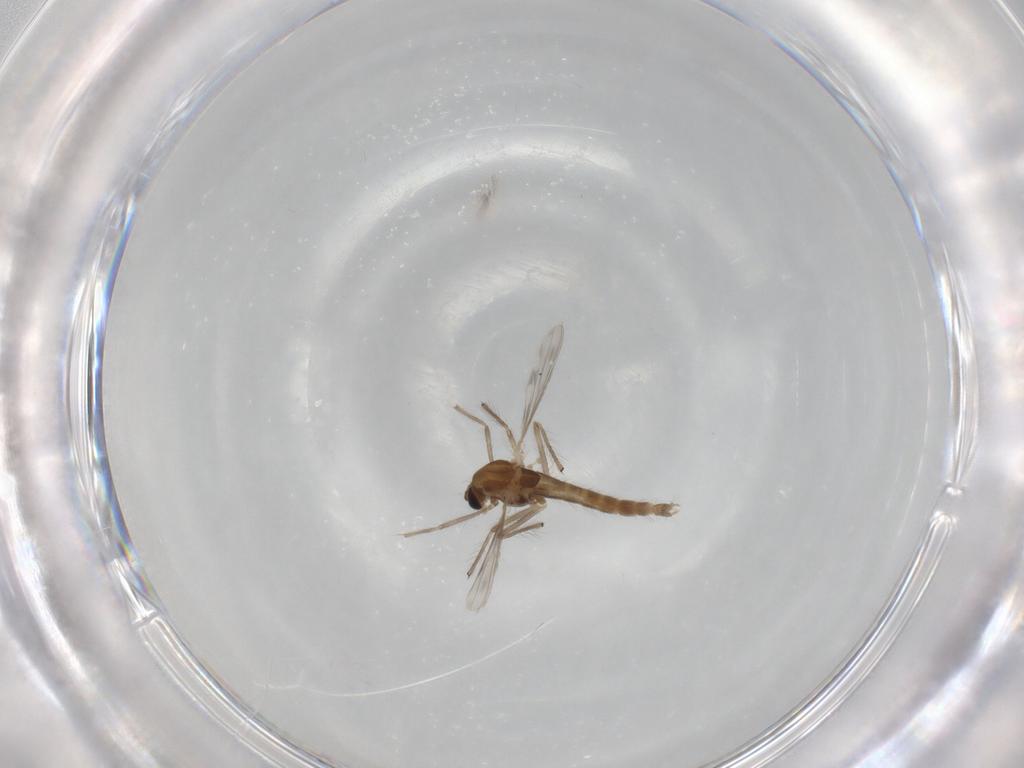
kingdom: Animalia
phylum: Arthropoda
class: Insecta
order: Diptera
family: Chironomidae
